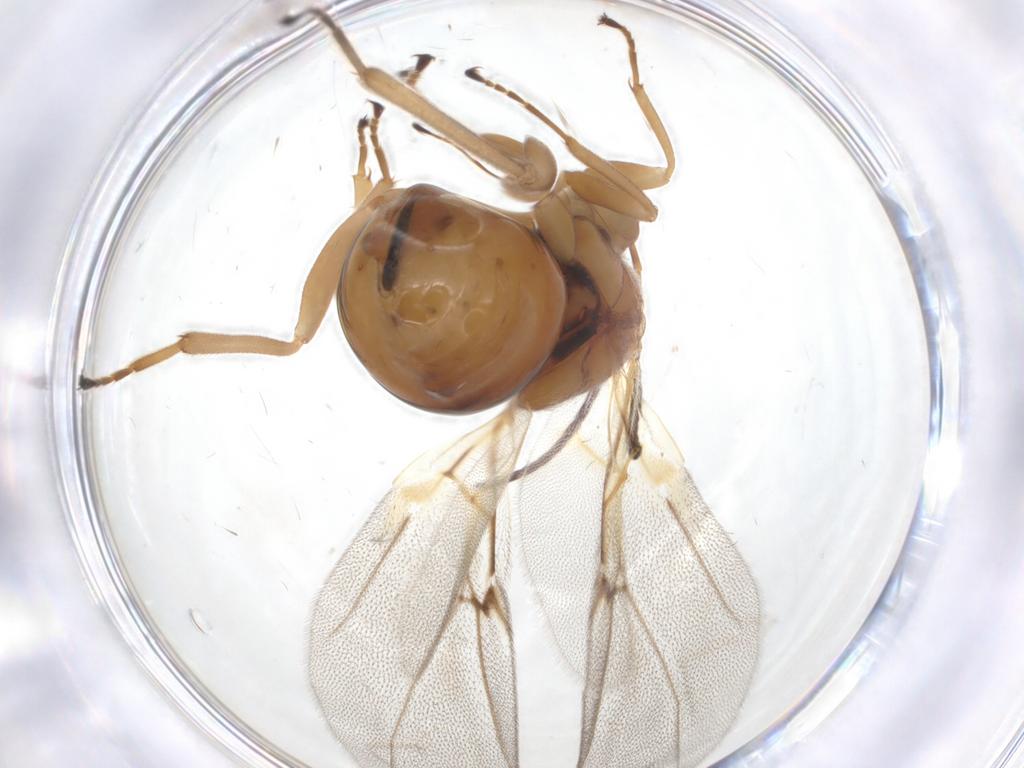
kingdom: Animalia
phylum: Arthropoda
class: Insecta
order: Hymenoptera
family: Cynipidae
